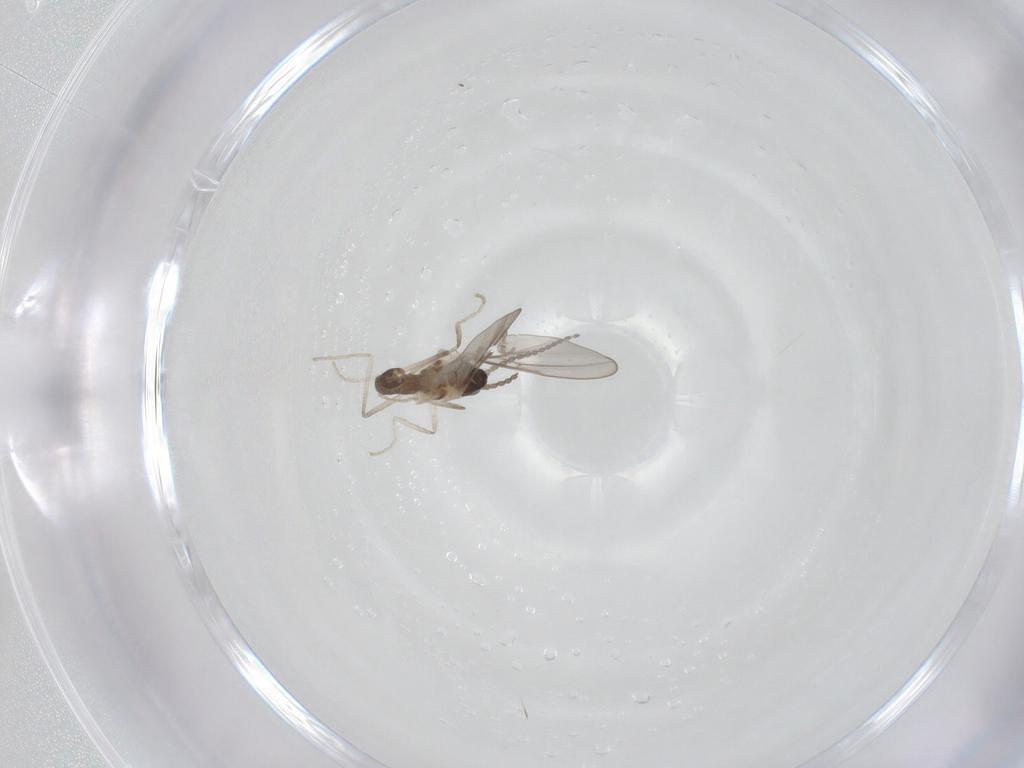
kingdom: Animalia
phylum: Arthropoda
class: Insecta
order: Diptera
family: Cecidomyiidae
